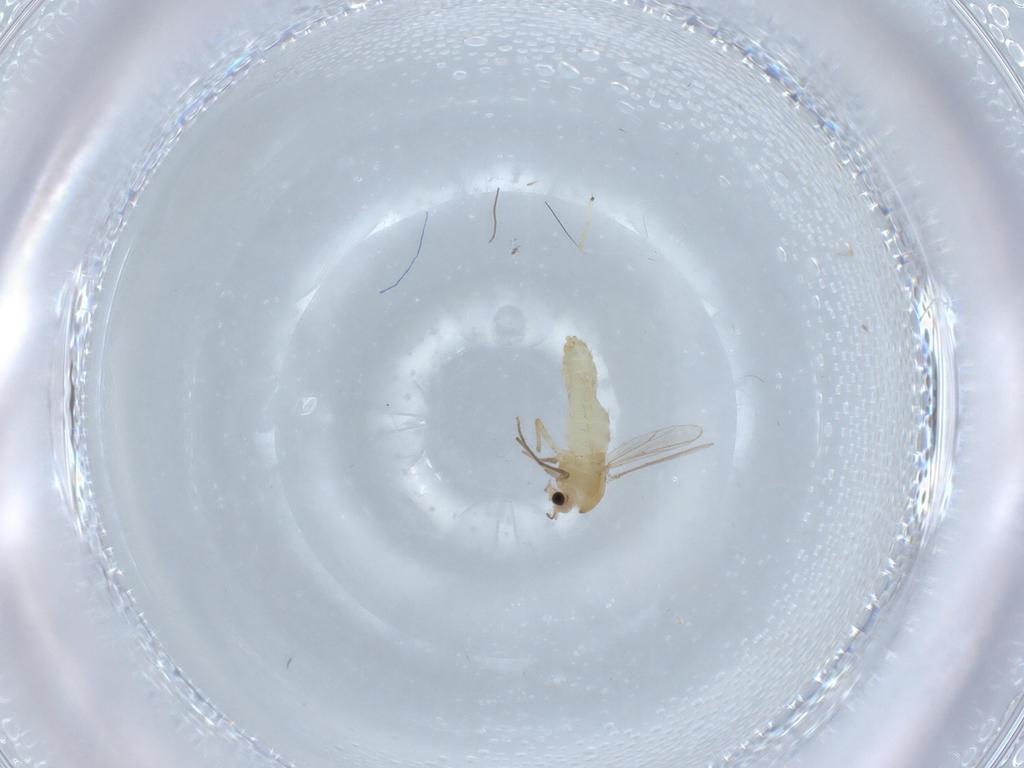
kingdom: Animalia
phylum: Arthropoda
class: Insecta
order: Diptera
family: Chironomidae
